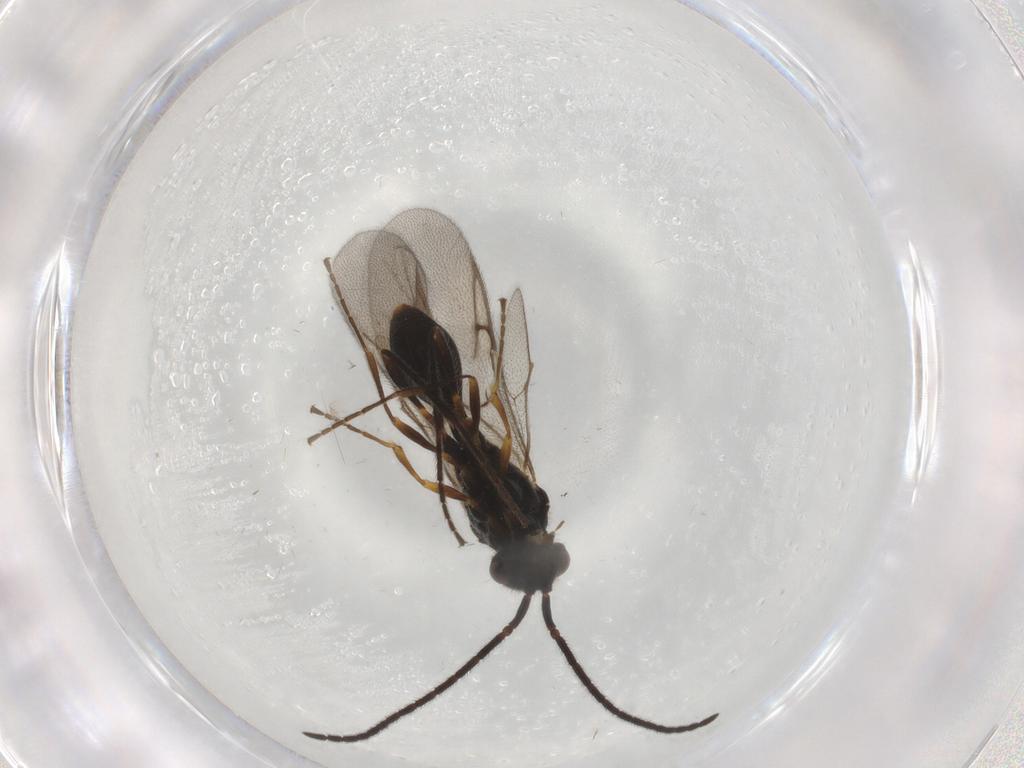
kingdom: Animalia
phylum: Arthropoda
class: Insecta
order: Hymenoptera
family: Diapriidae
